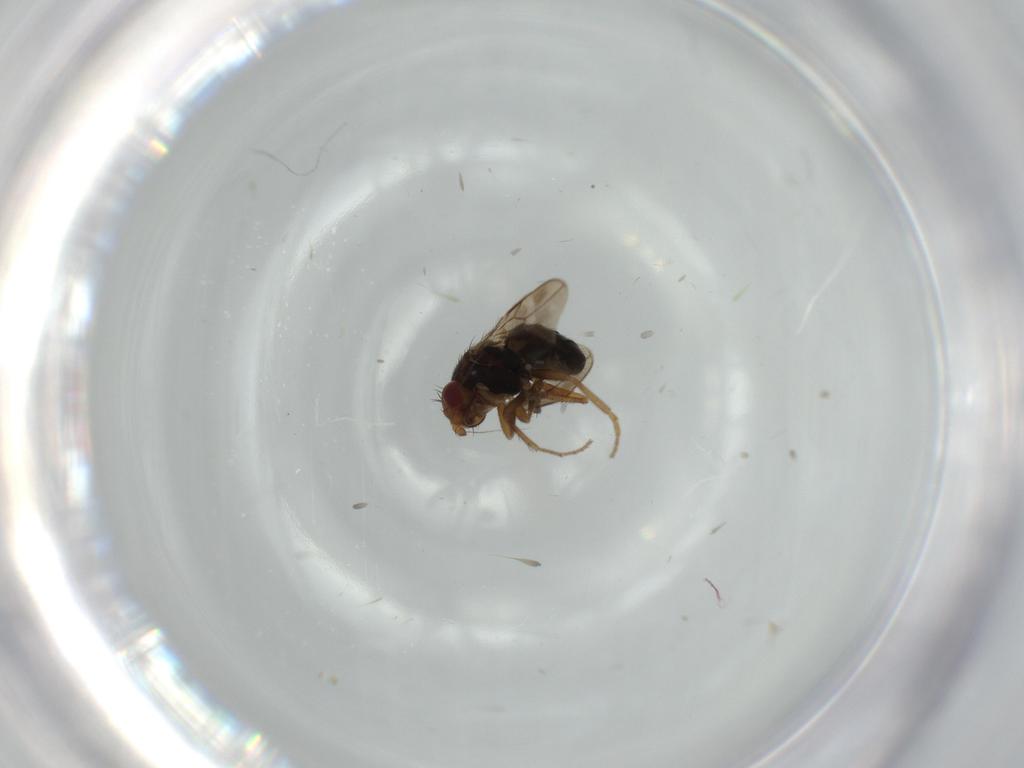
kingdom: Animalia
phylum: Arthropoda
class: Insecta
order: Diptera
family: Sphaeroceridae
